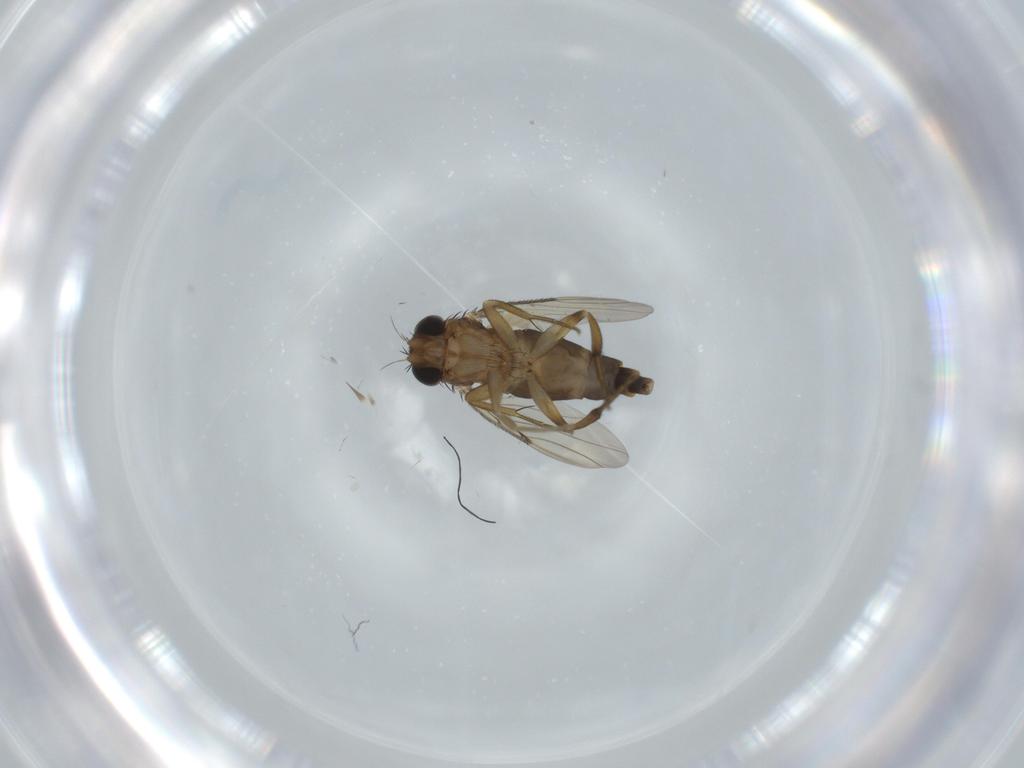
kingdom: Animalia
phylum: Arthropoda
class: Insecta
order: Diptera
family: Phoridae
